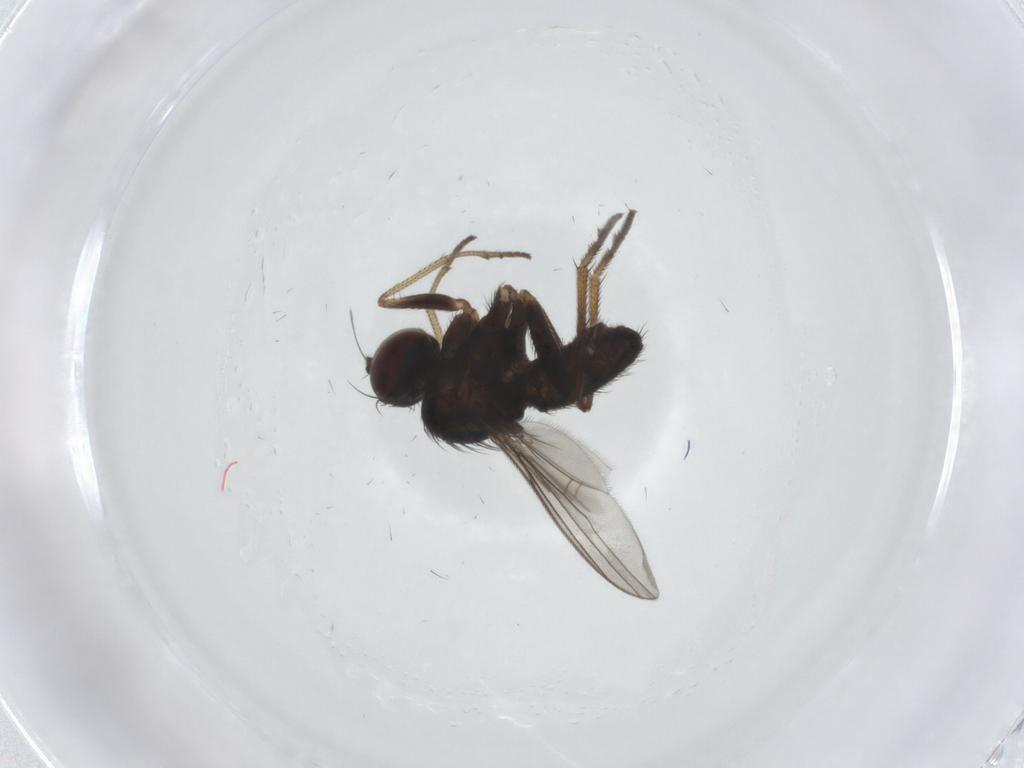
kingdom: Animalia
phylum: Arthropoda
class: Insecta
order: Diptera
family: Dolichopodidae
